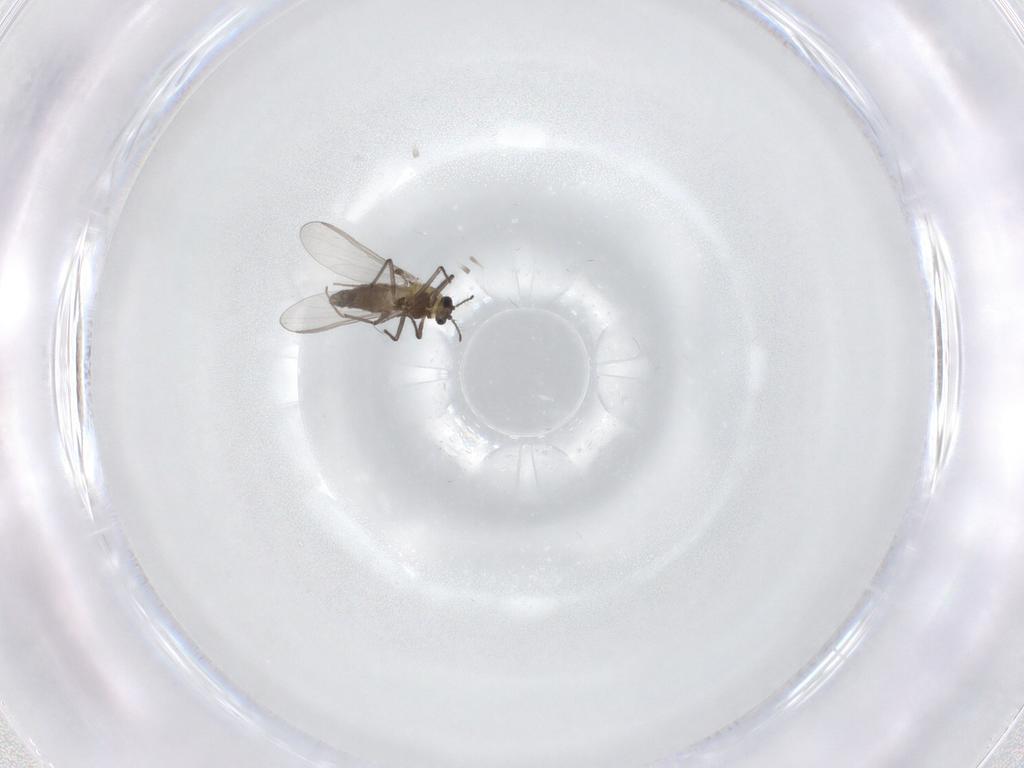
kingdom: Animalia
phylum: Arthropoda
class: Insecta
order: Diptera
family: Chironomidae
